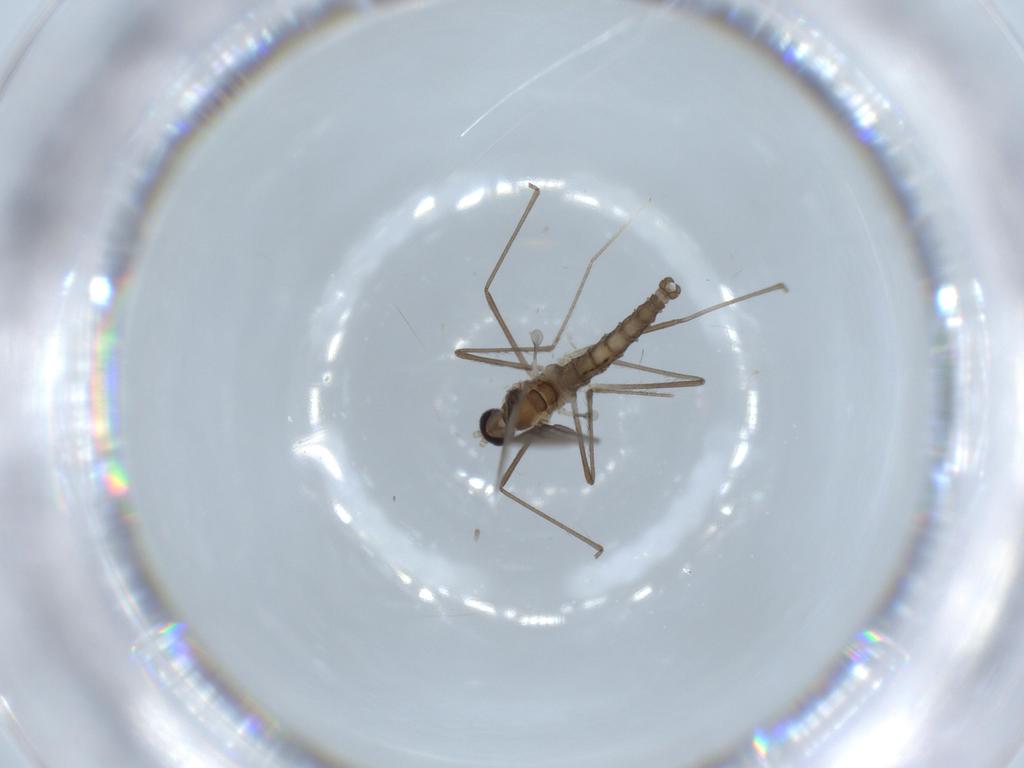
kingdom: Animalia
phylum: Arthropoda
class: Insecta
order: Diptera
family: Cecidomyiidae
